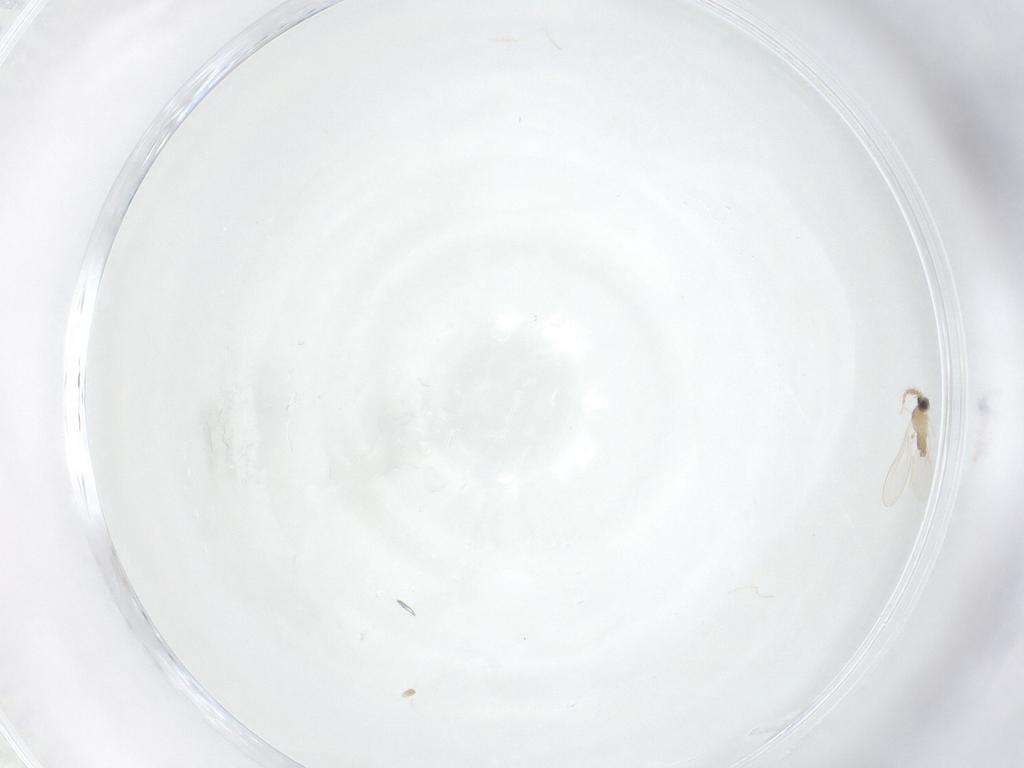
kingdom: Animalia
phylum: Arthropoda
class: Insecta
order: Diptera
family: Cecidomyiidae
